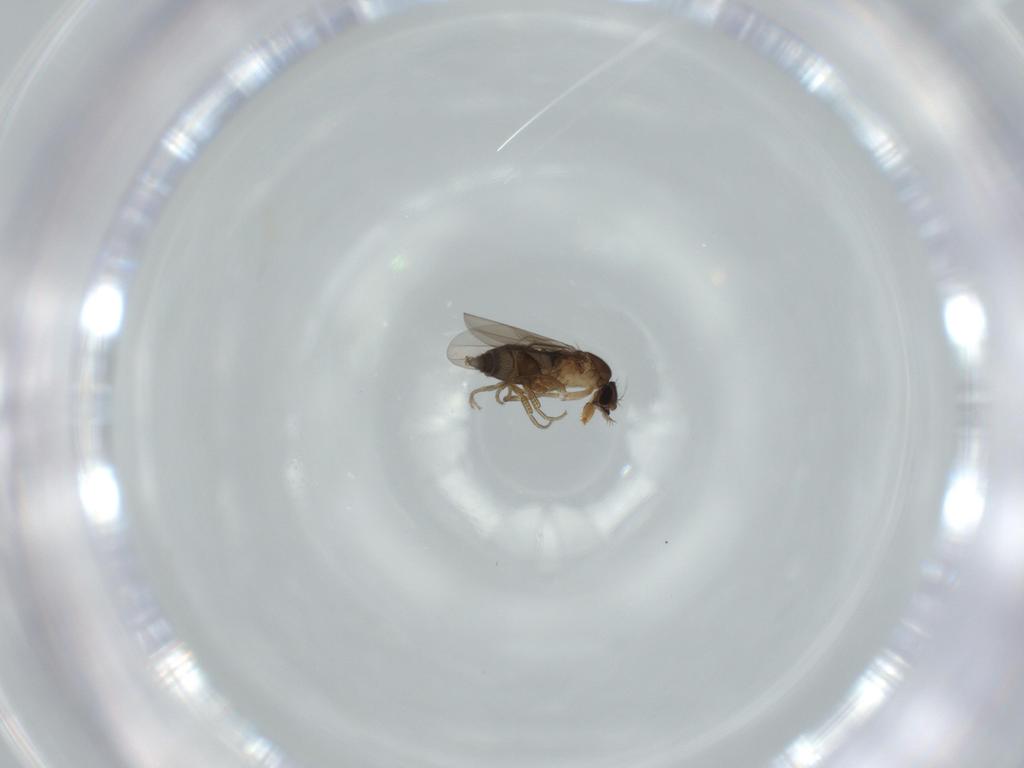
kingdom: Animalia
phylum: Arthropoda
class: Insecta
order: Diptera
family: Phoridae
